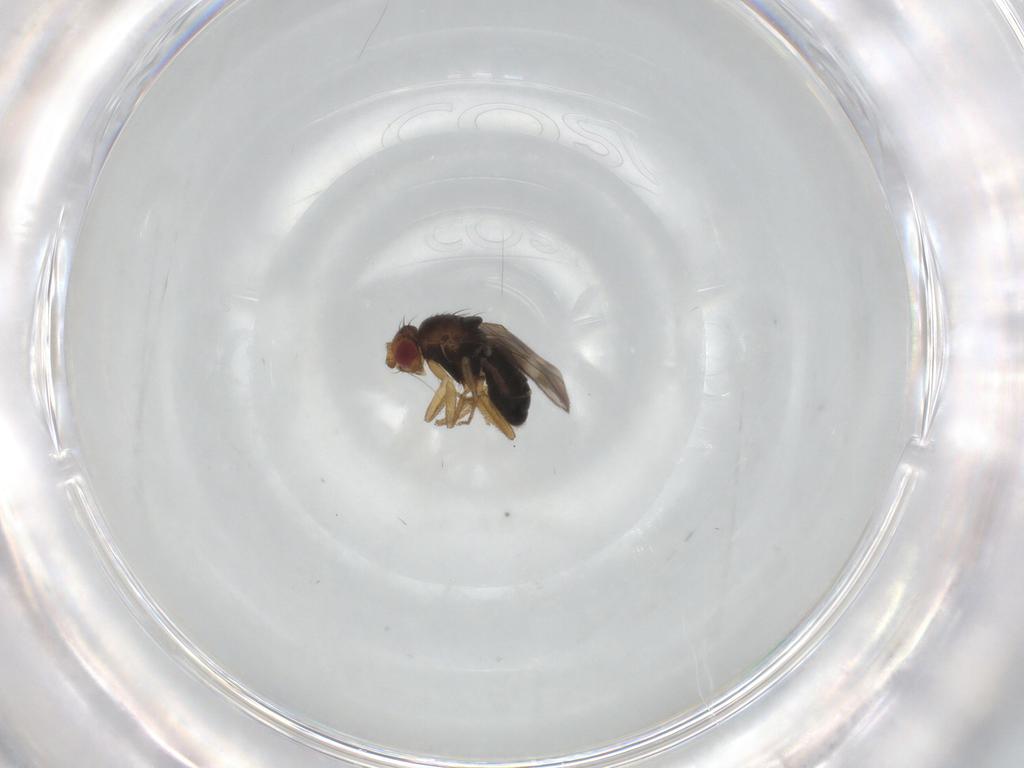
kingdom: Animalia
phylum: Arthropoda
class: Insecta
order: Diptera
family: Sphaeroceridae
